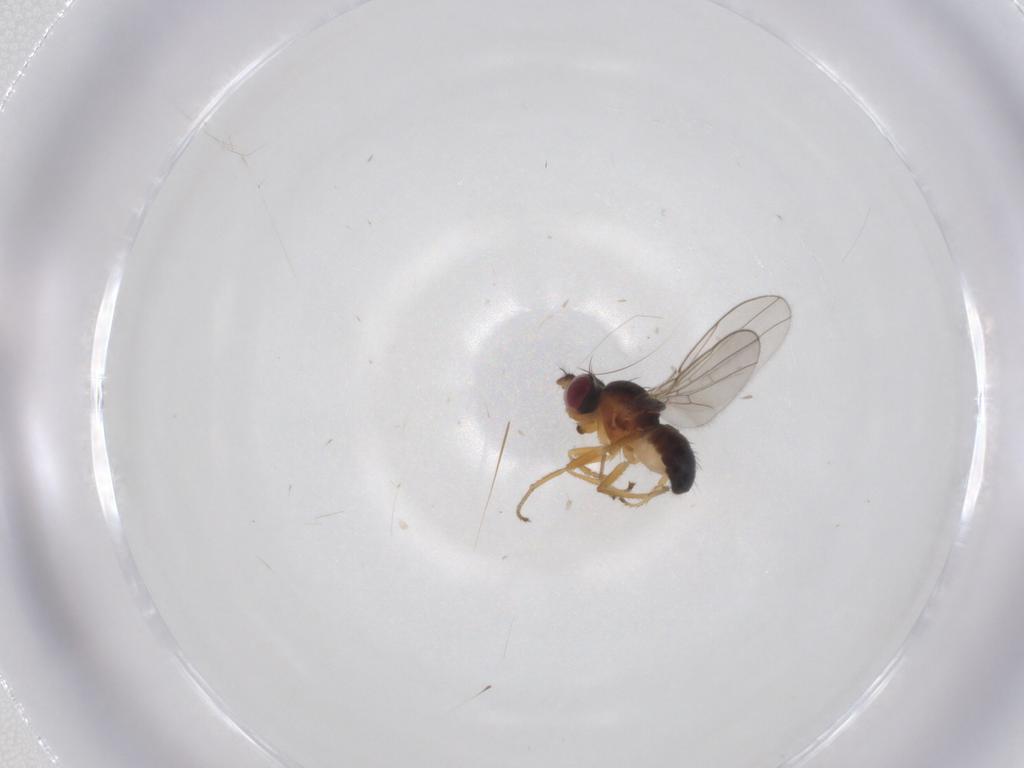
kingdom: Animalia
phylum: Arthropoda
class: Insecta
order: Diptera
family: Ephydridae
